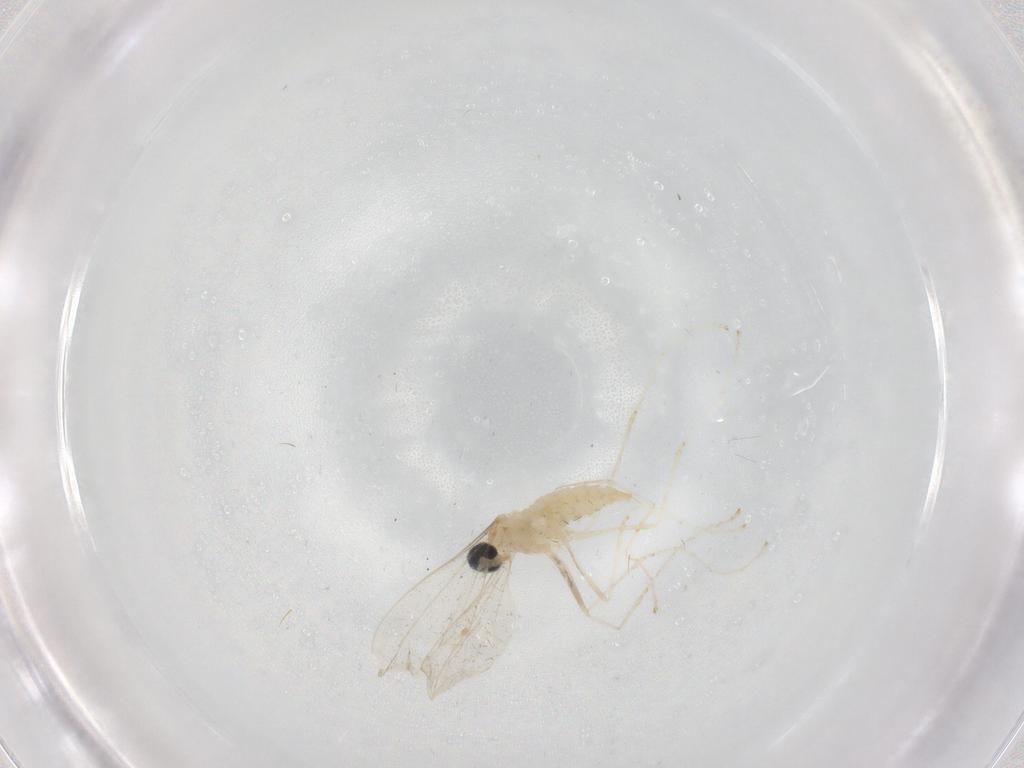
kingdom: Animalia
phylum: Arthropoda
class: Insecta
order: Diptera
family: Cecidomyiidae
